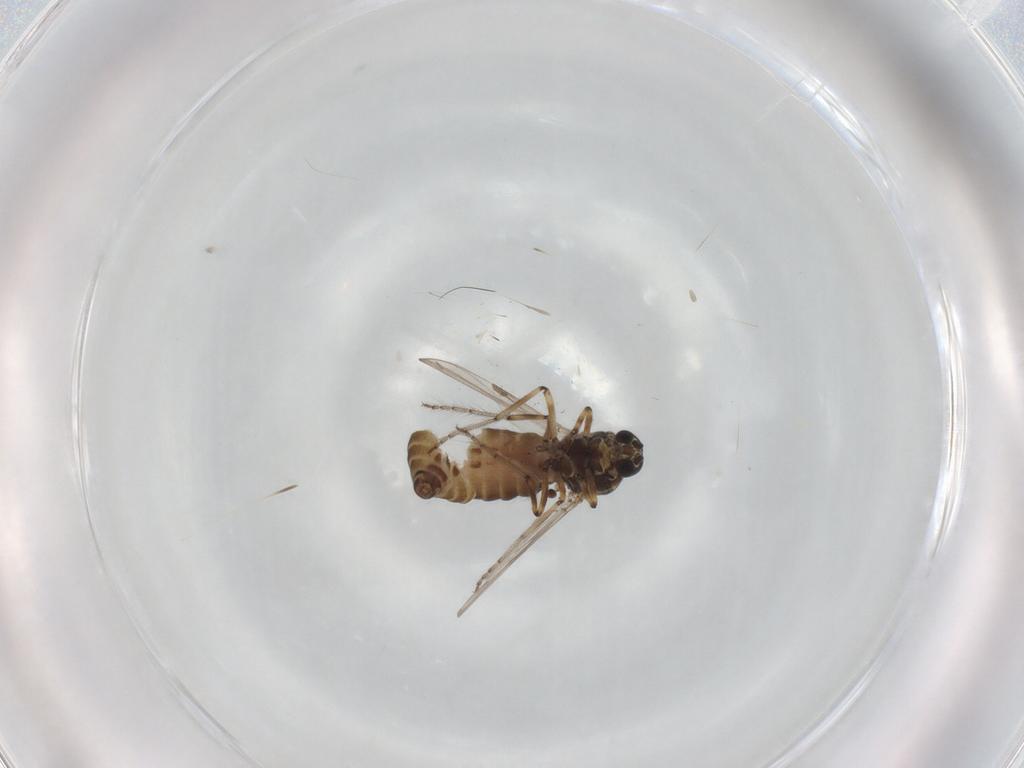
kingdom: Animalia
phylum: Arthropoda
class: Insecta
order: Diptera
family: Ceratopogonidae
